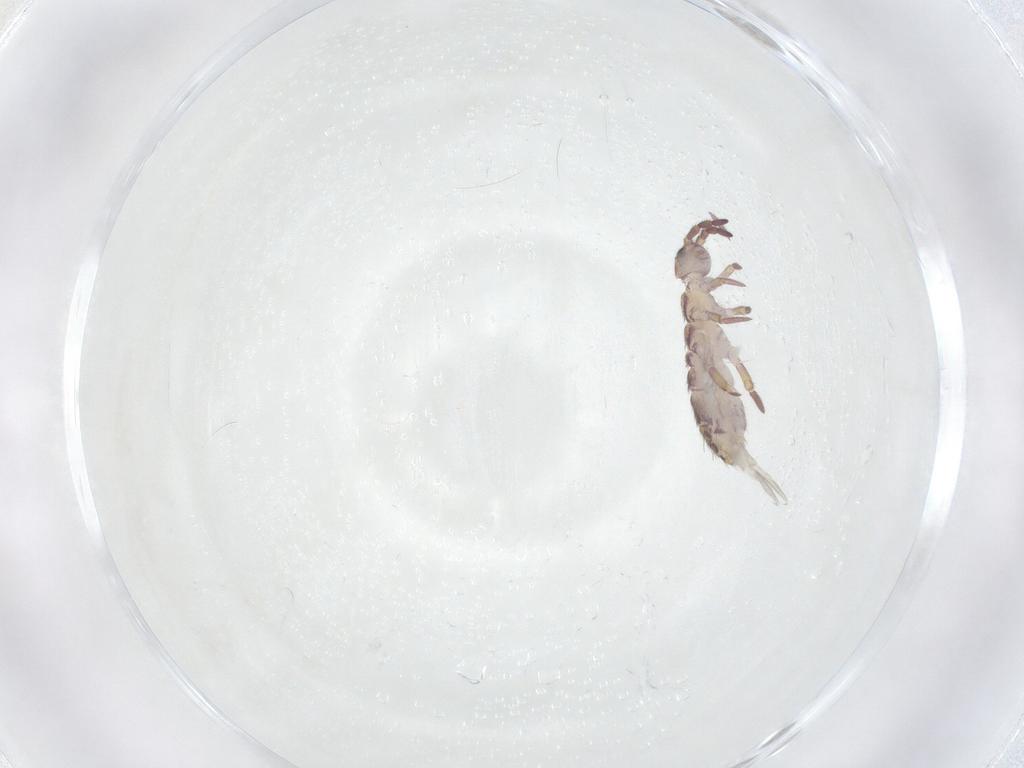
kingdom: Animalia
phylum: Arthropoda
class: Collembola
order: Entomobryomorpha
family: Isotomidae
